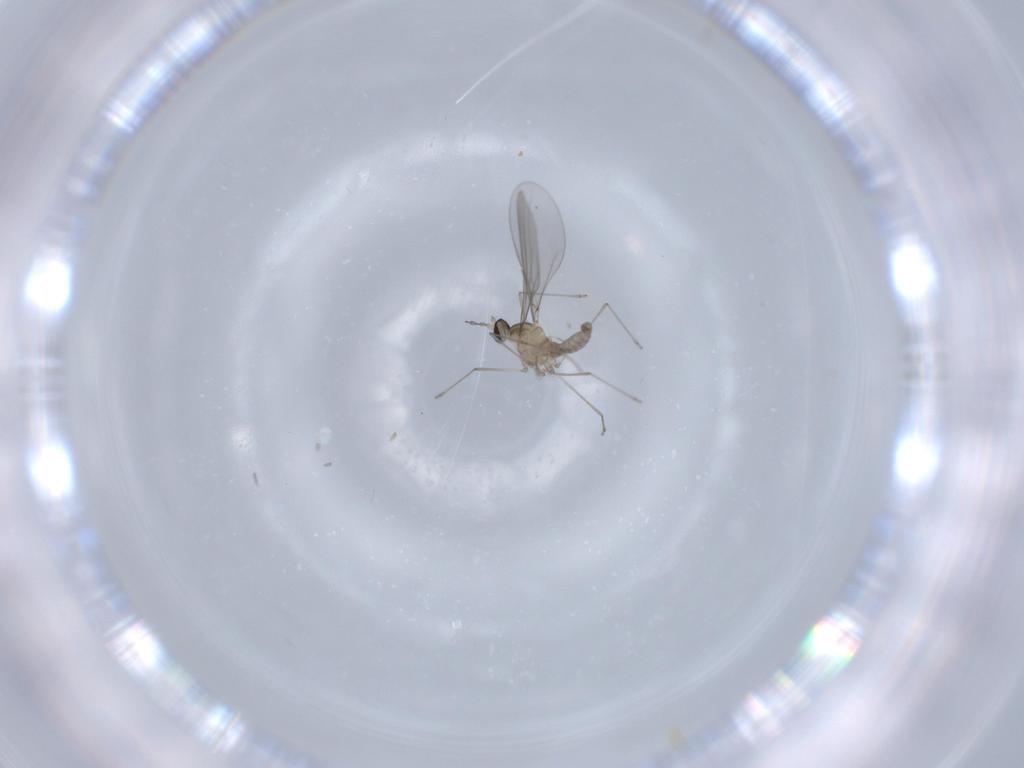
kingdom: Animalia
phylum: Arthropoda
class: Insecta
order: Diptera
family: Cecidomyiidae
